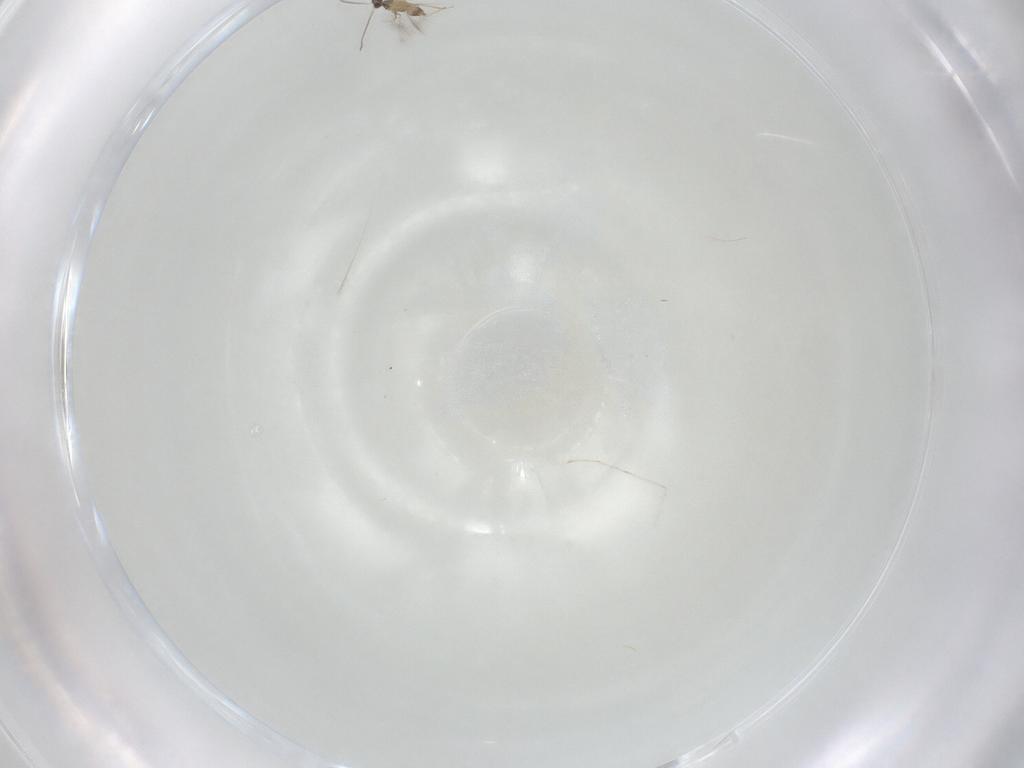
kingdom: Animalia
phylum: Arthropoda
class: Insecta
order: Diptera
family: Cecidomyiidae
